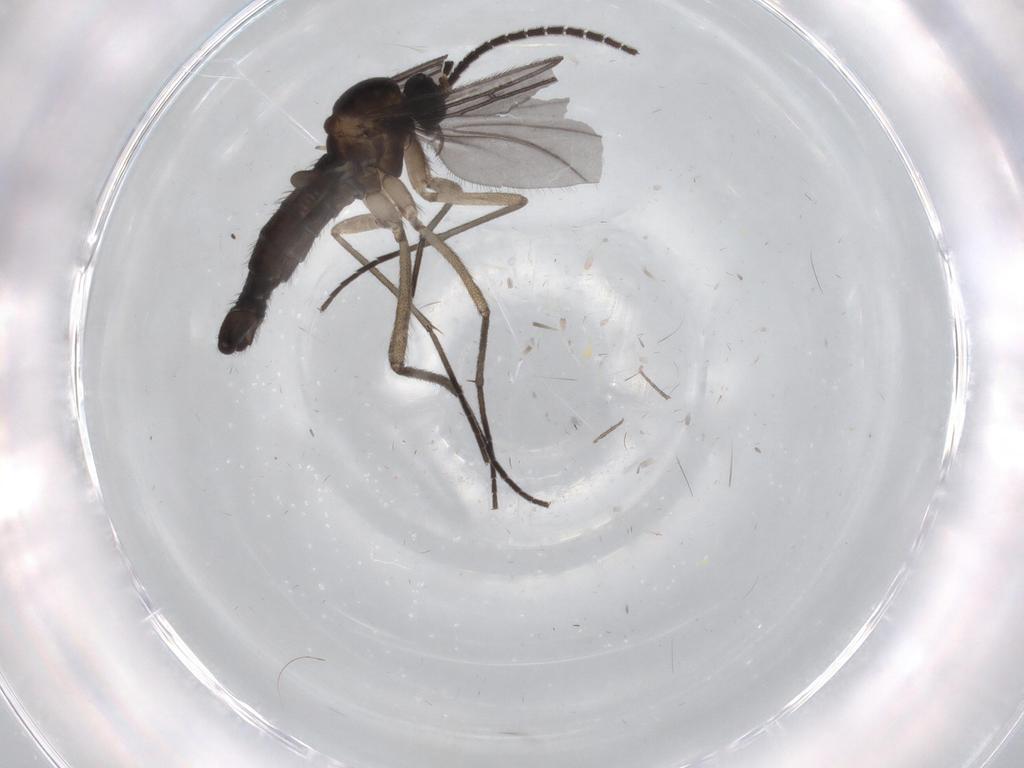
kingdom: Animalia
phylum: Arthropoda
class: Insecta
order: Diptera
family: Sciaridae
